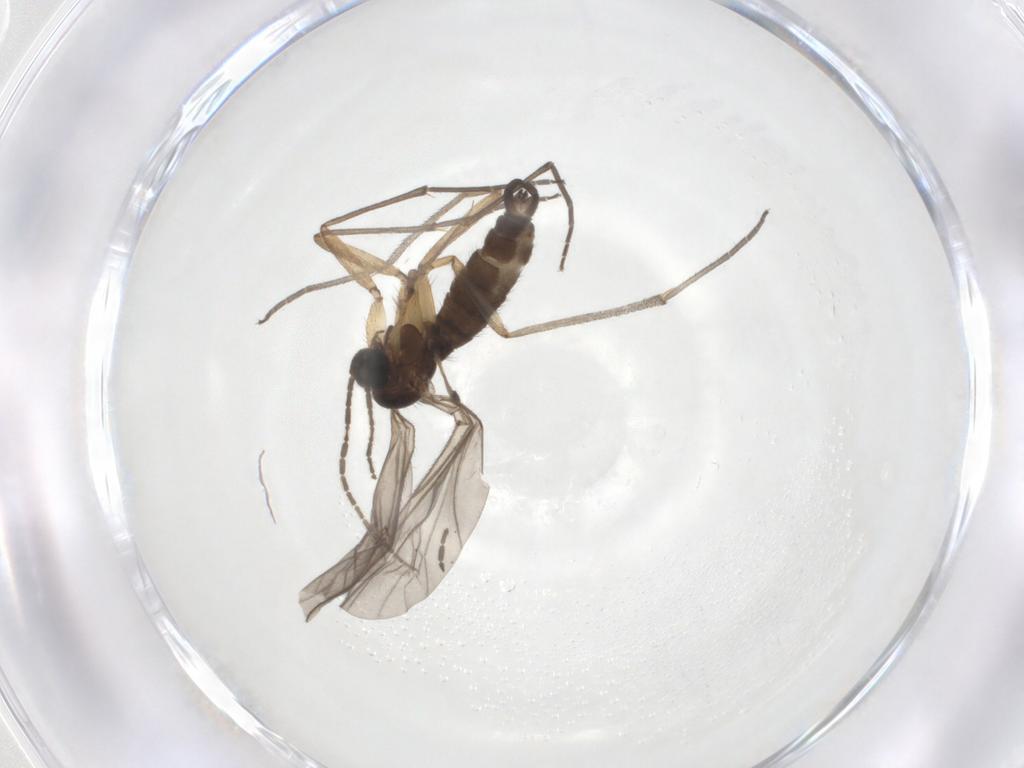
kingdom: Animalia
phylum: Arthropoda
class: Insecta
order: Diptera
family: Sciaridae
